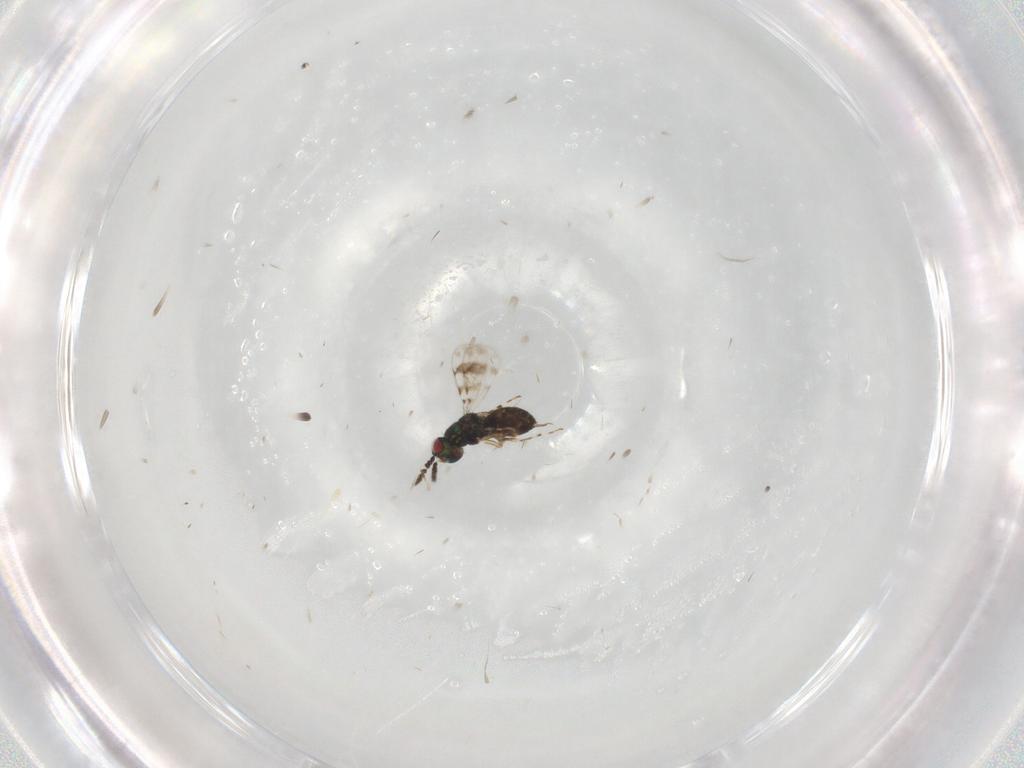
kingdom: Animalia
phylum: Arthropoda
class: Insecta
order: Hymenoptera
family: Eulophidae
